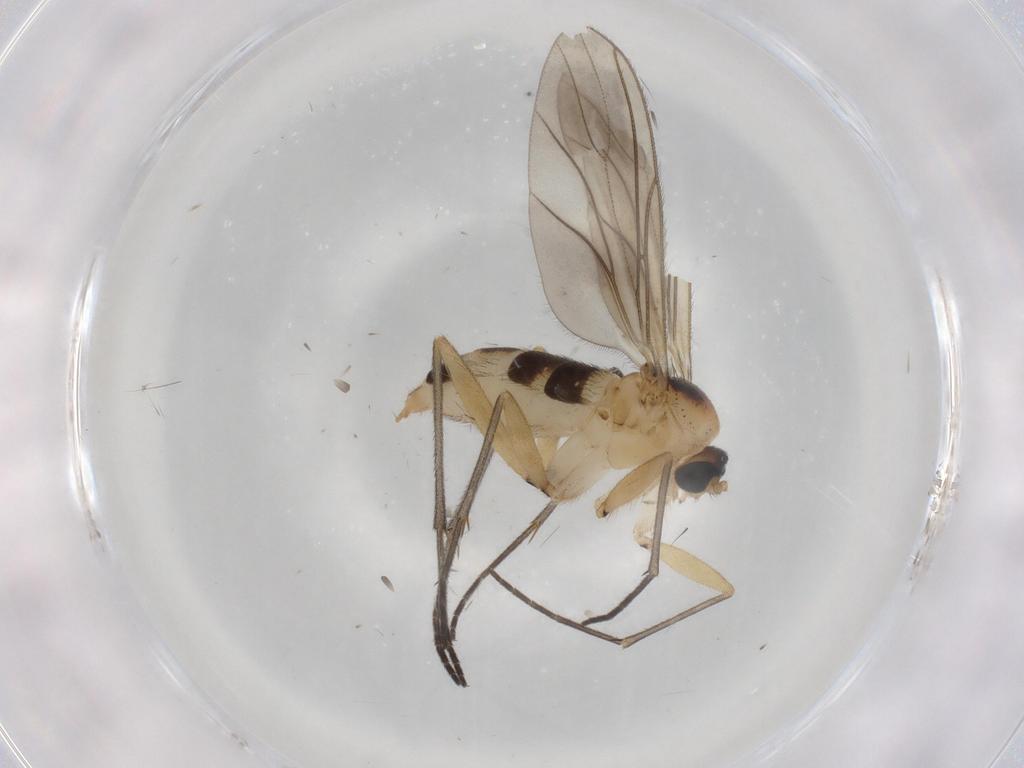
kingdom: Animalia
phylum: Arthropoda
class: Insecta
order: Diptera
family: Sciaridae
